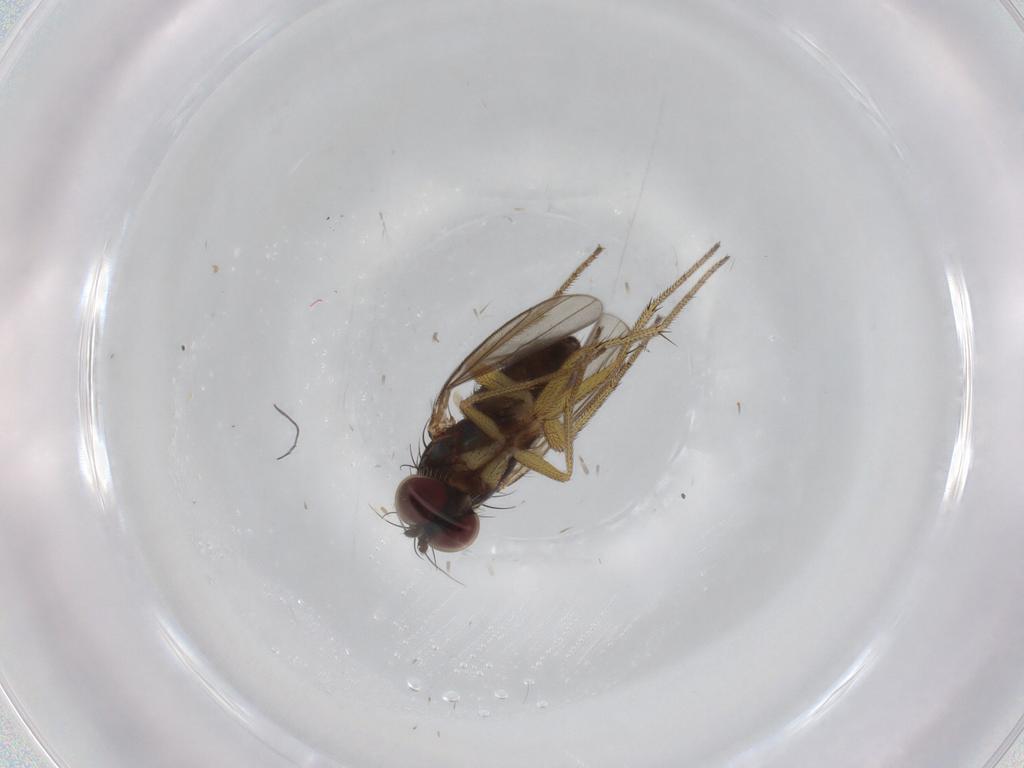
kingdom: Animalia
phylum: Arthropoda
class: Insecta
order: Diptera
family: Dolichopodidae
